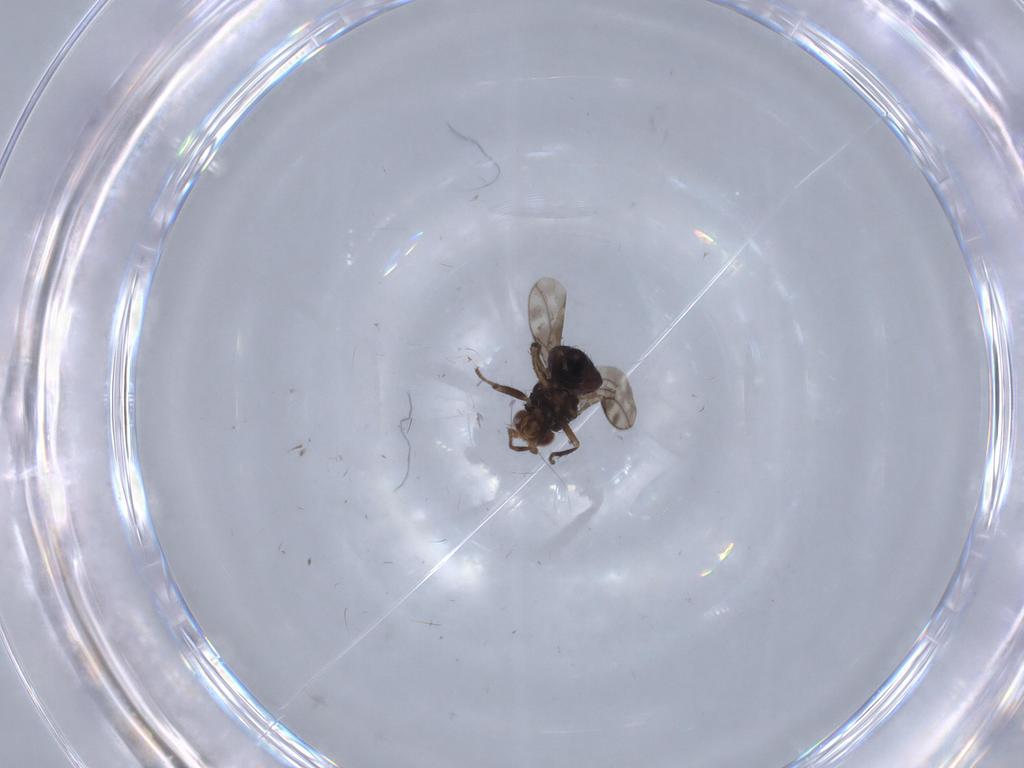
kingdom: Animalia
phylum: Arthropoda
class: Insecta
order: Diptera
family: Sphaeroceridae
